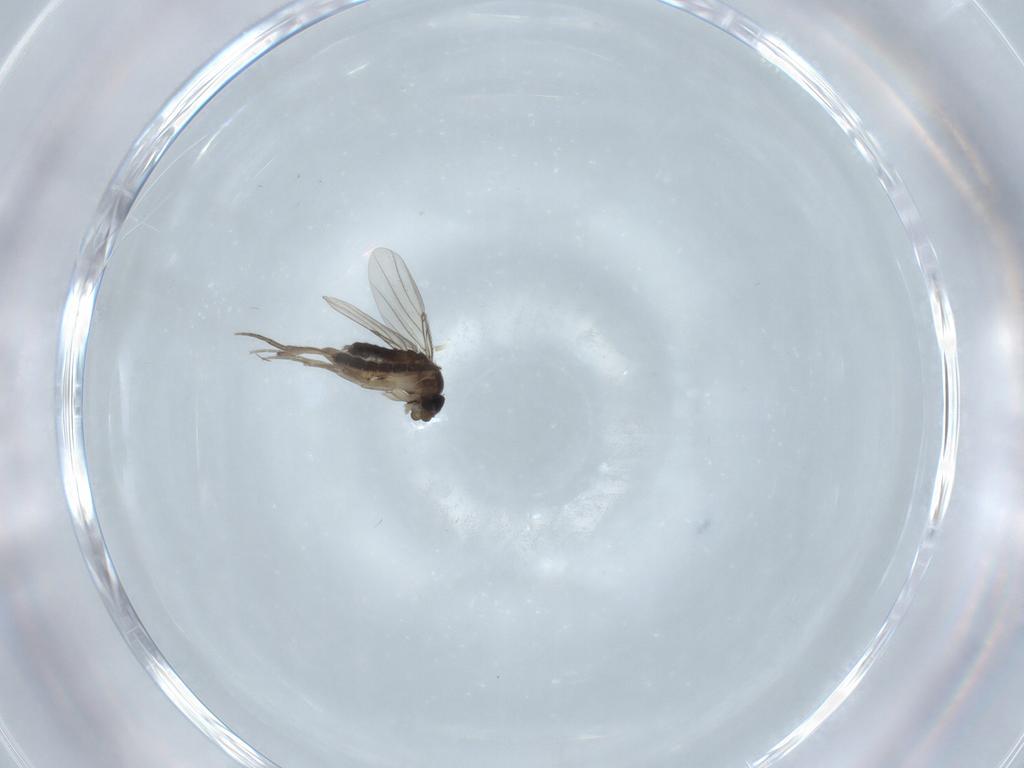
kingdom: Animalia
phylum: Arthropoda
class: Insecta
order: Diptera
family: Phoridae
